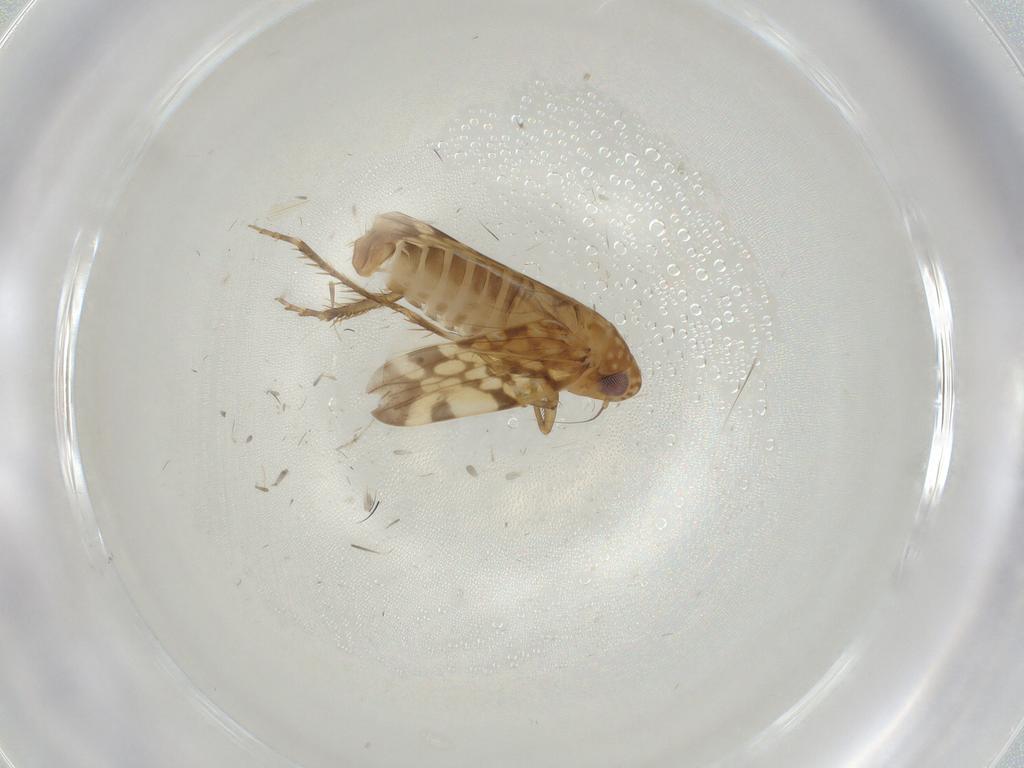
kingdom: Animalia
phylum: Arthropoda
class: Insecta
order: Hemiptera
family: Cicadellidae
